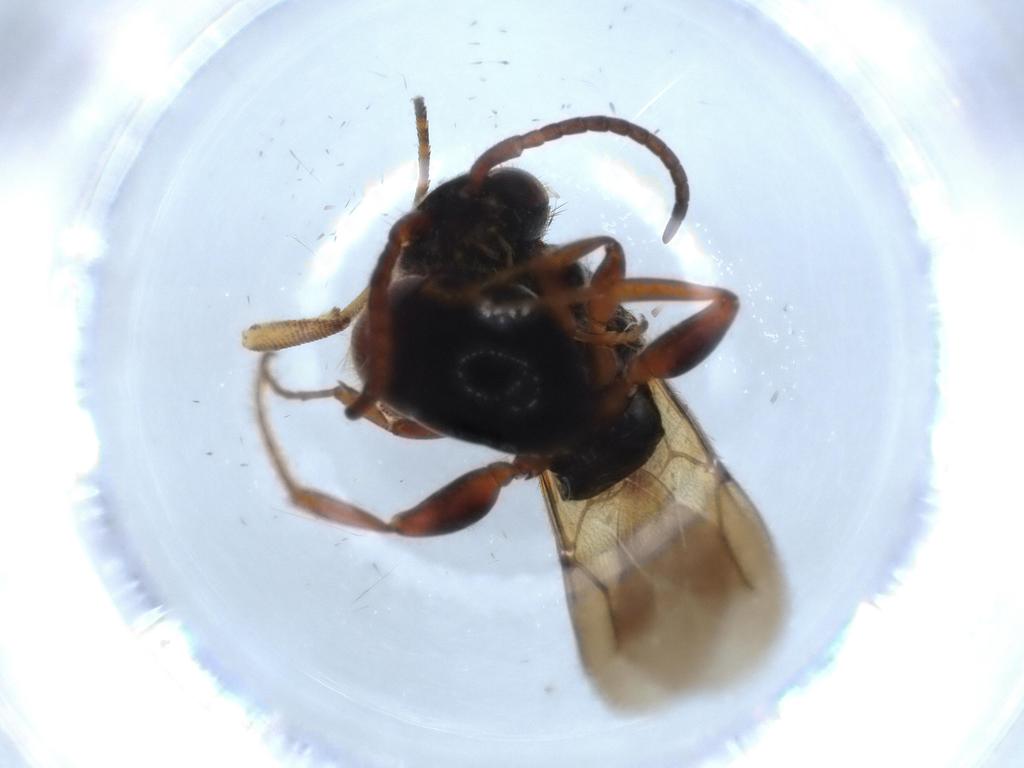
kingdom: Animalia
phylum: Arthropoda
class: Insecta
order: Hymenoptera
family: Bethylidae
